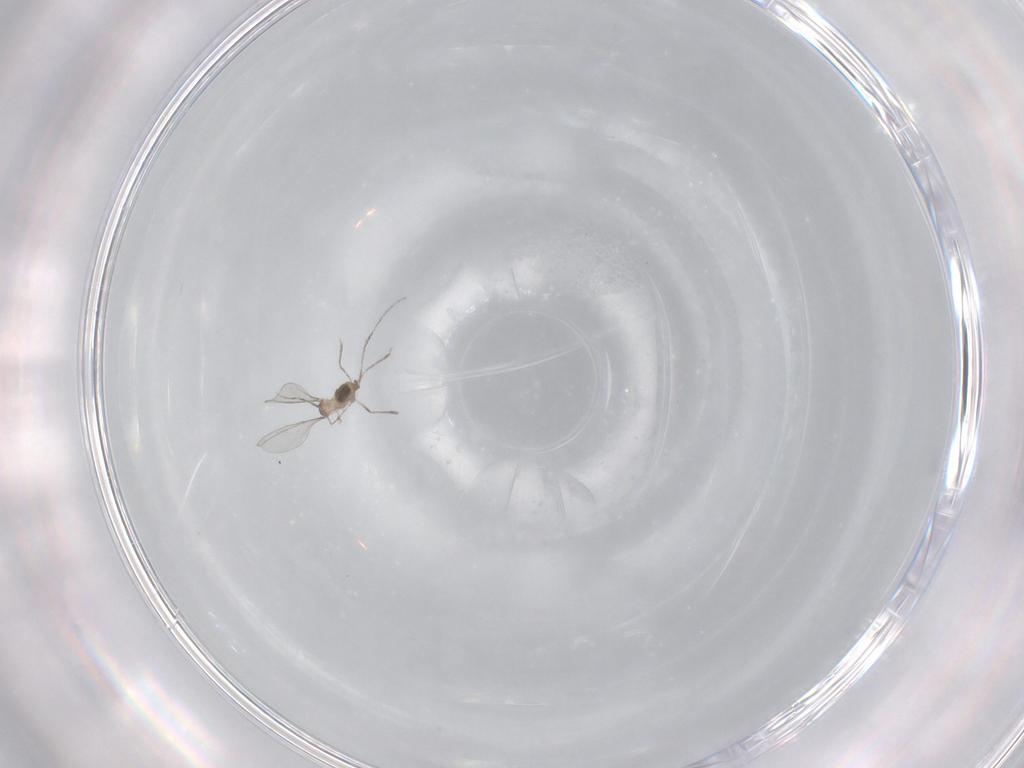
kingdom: Animalia
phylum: Arthropoda
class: Insecta
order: Diptera
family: Cecidomyiidae
